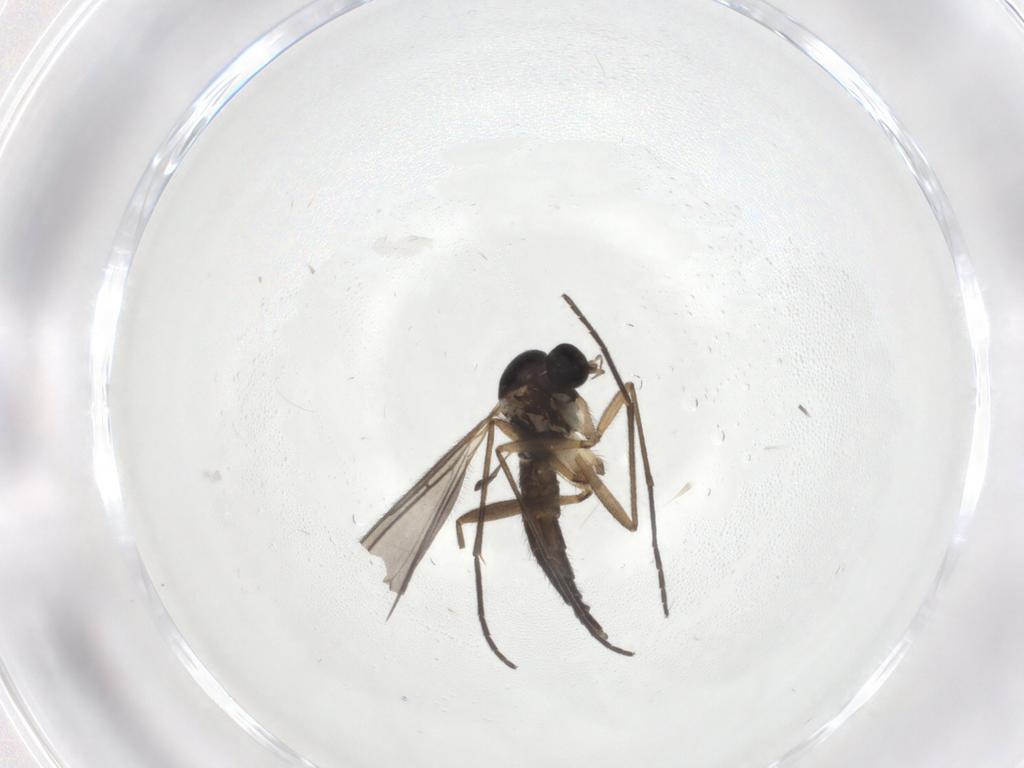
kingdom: Animalia
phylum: Arthropoda
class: Insecta
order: Diptera
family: Sciaridae
